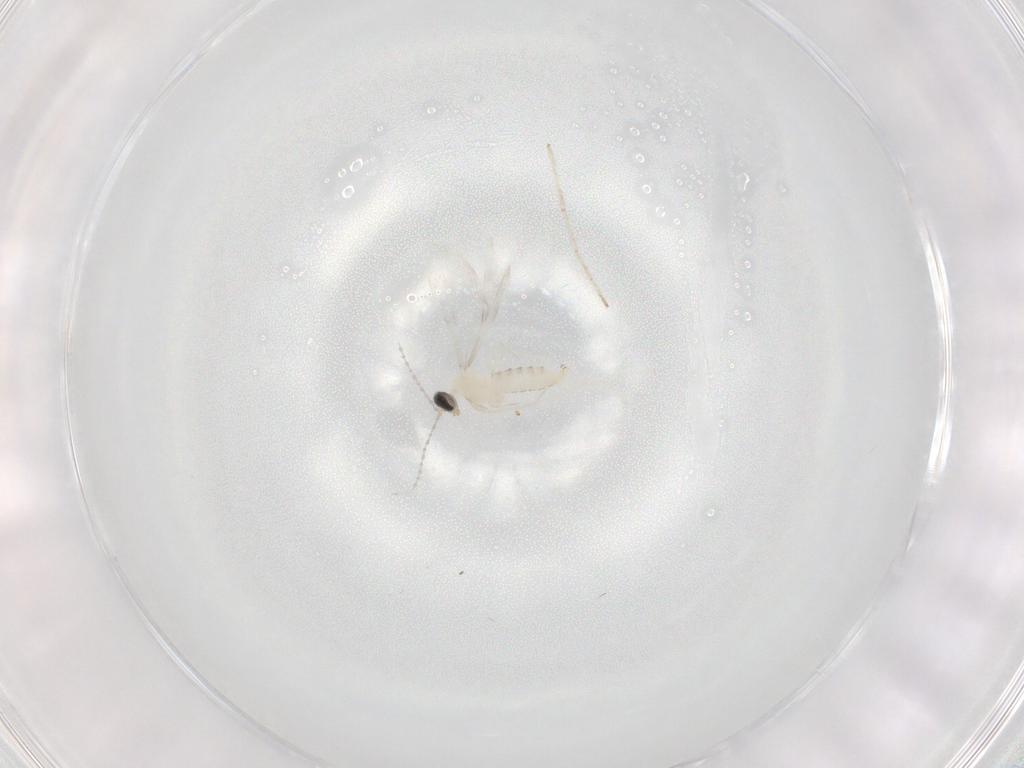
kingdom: Animalia
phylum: Arthropoda
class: Insecta
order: Diptera
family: Cecidomyiidae
